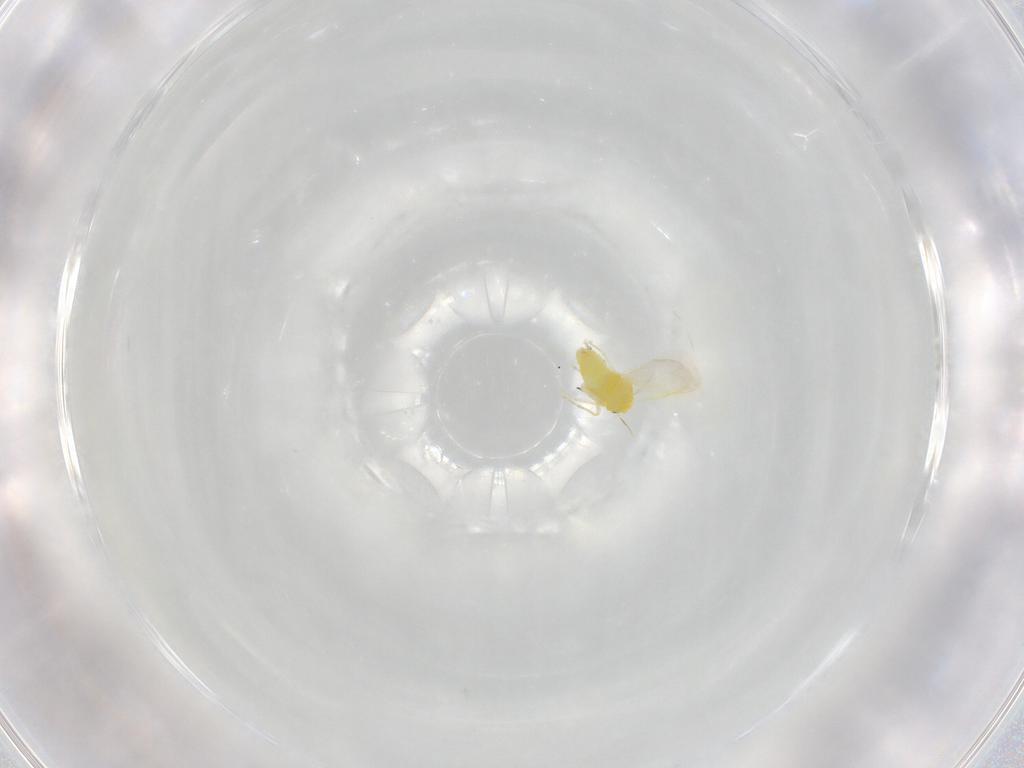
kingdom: Animalia
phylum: Arthropoda
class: Insecta
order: Hemiptera
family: Aleyrodidae
